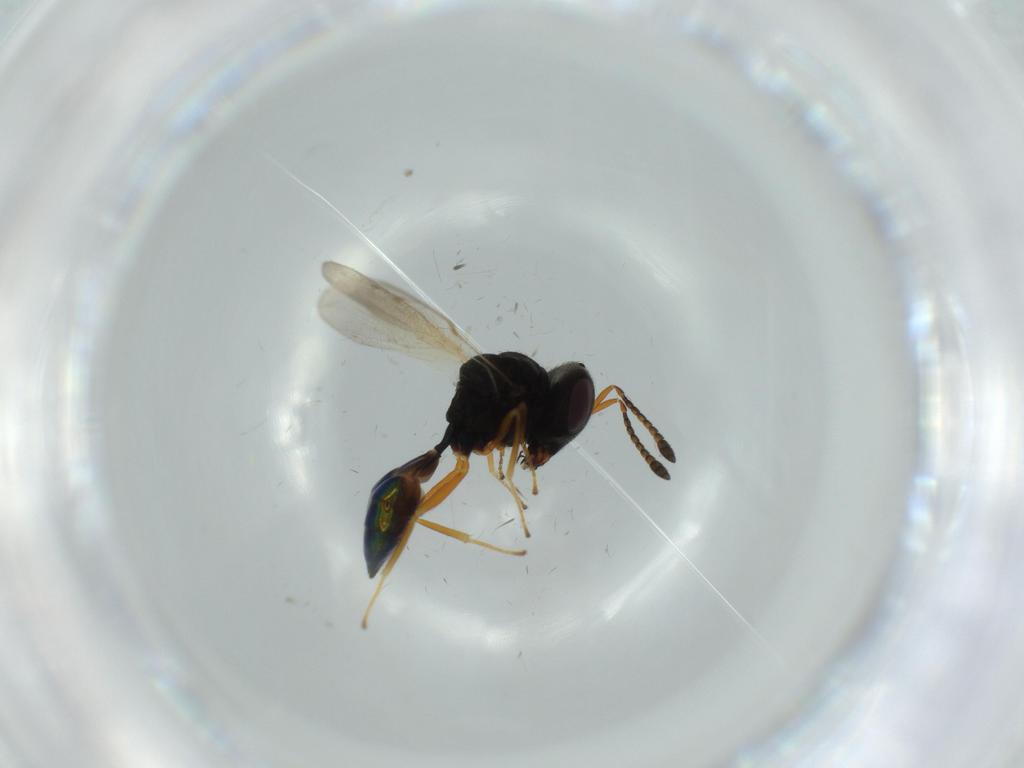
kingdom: Animalia
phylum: Arthropoda
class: Insecta
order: Hymenoptera
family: Pteromalidae
